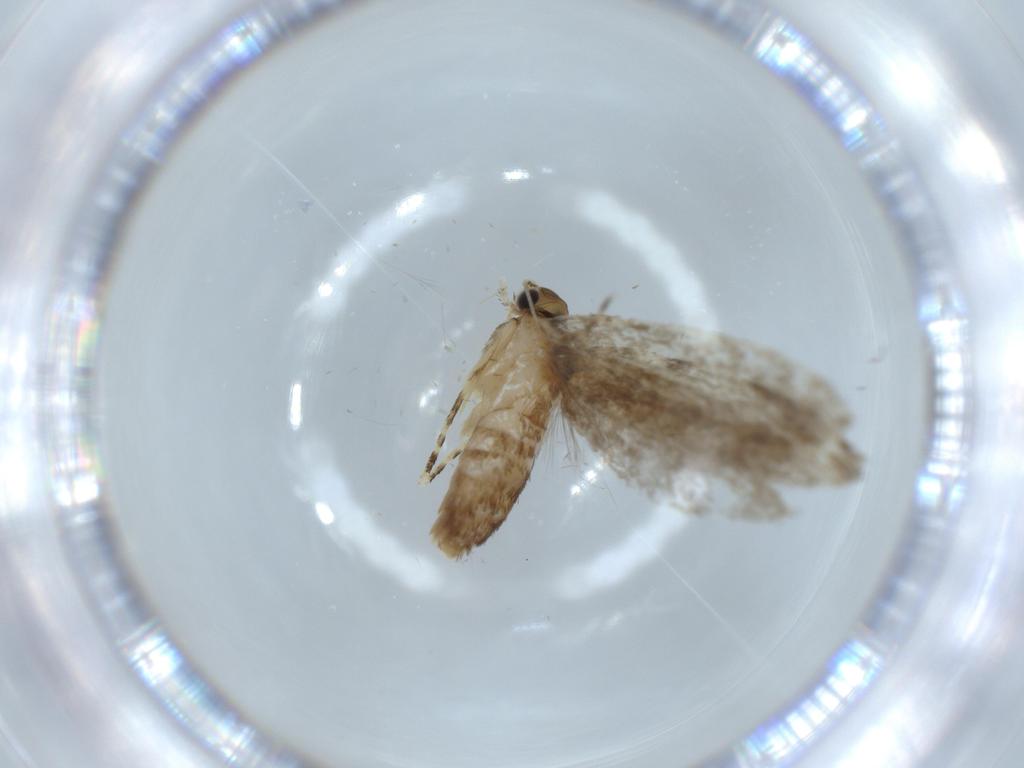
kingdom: Animalia
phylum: Arthropoda
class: Insecta
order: Lepidoptera
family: Tineidae
